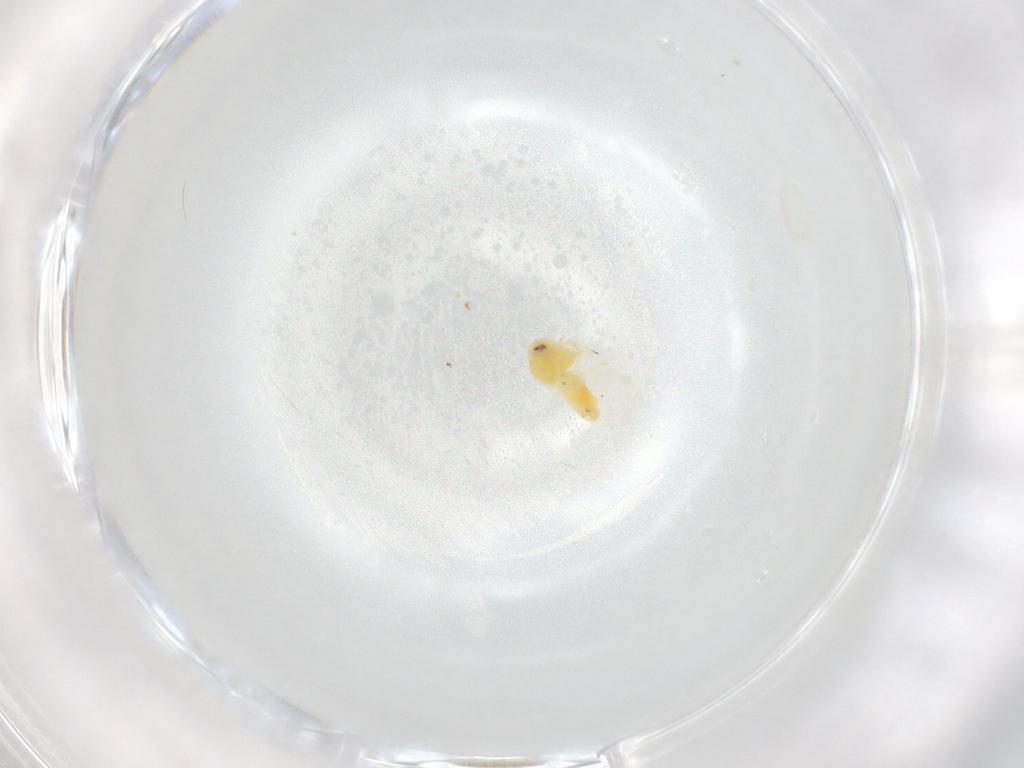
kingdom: Animalia
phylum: Arthropoda
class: Insecta
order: Hemiptera
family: Aleyrodidae
